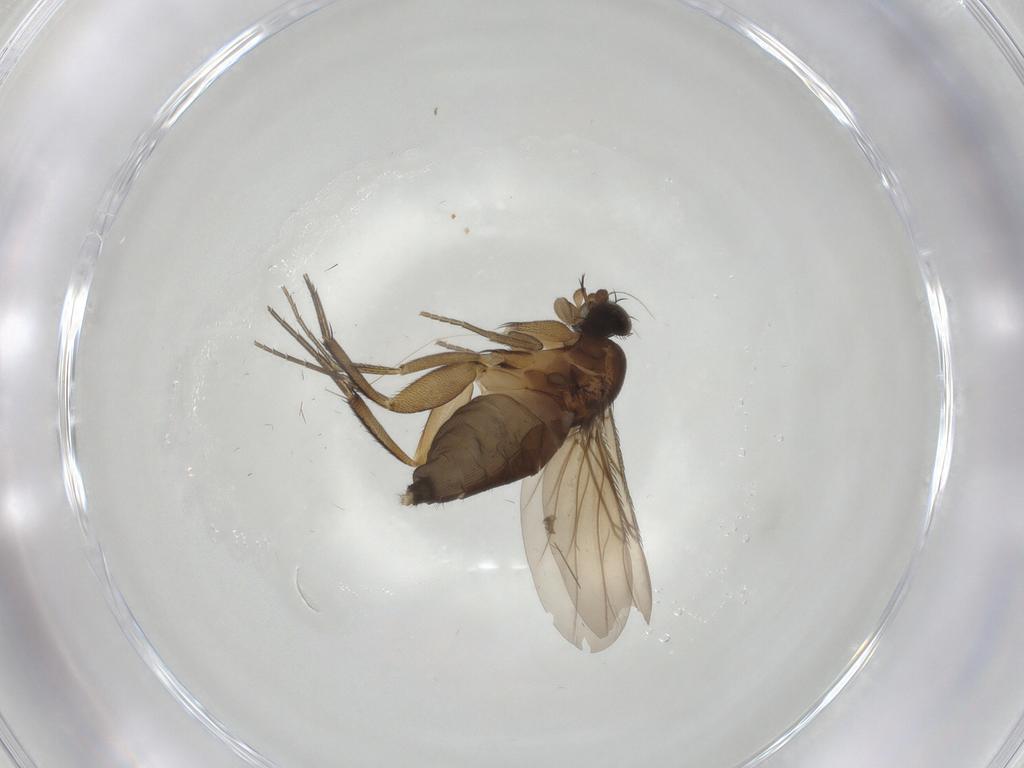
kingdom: Animalia
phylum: Arthropoda
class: Insecta
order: Diptera
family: Phoridae
